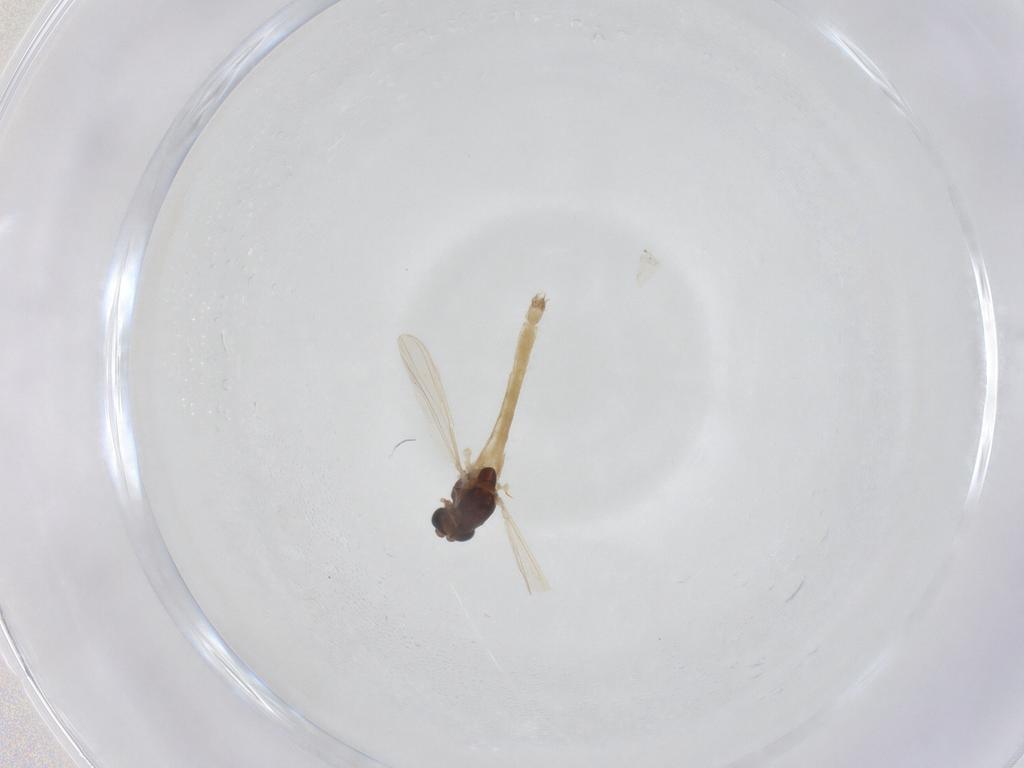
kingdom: Animalia
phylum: Arthropoda
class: Insecta
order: Diptera
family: Chironomidae
